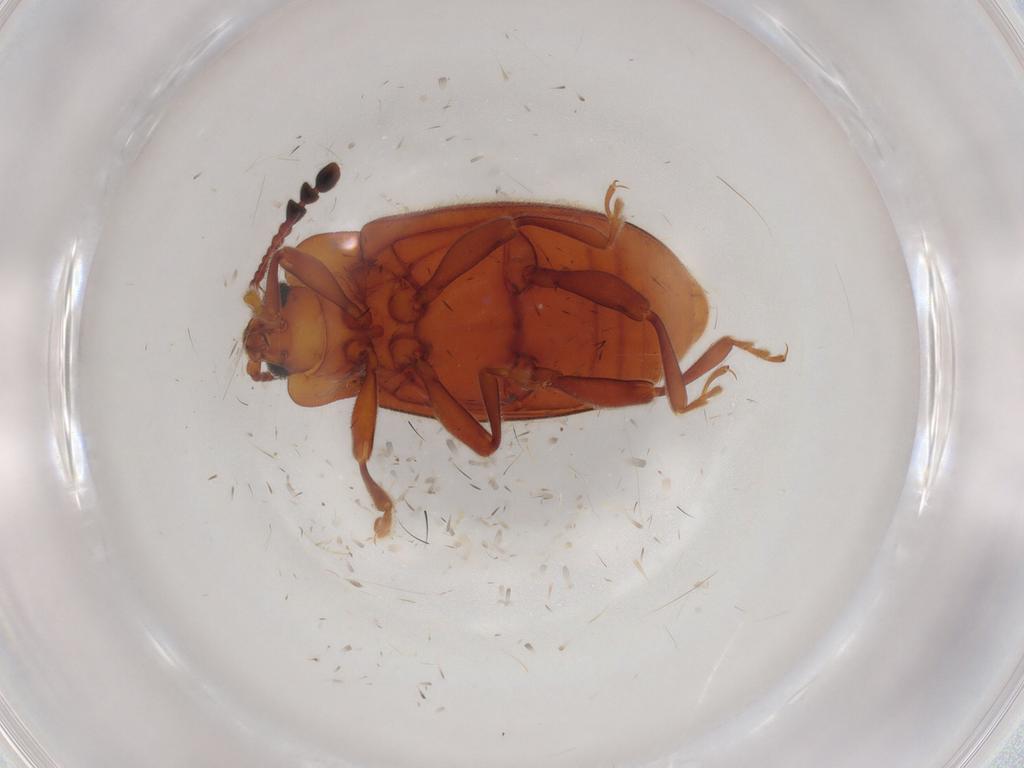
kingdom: Animalia
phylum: Arthropoda
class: Insecta
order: Coleoptera
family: Endomychidae
